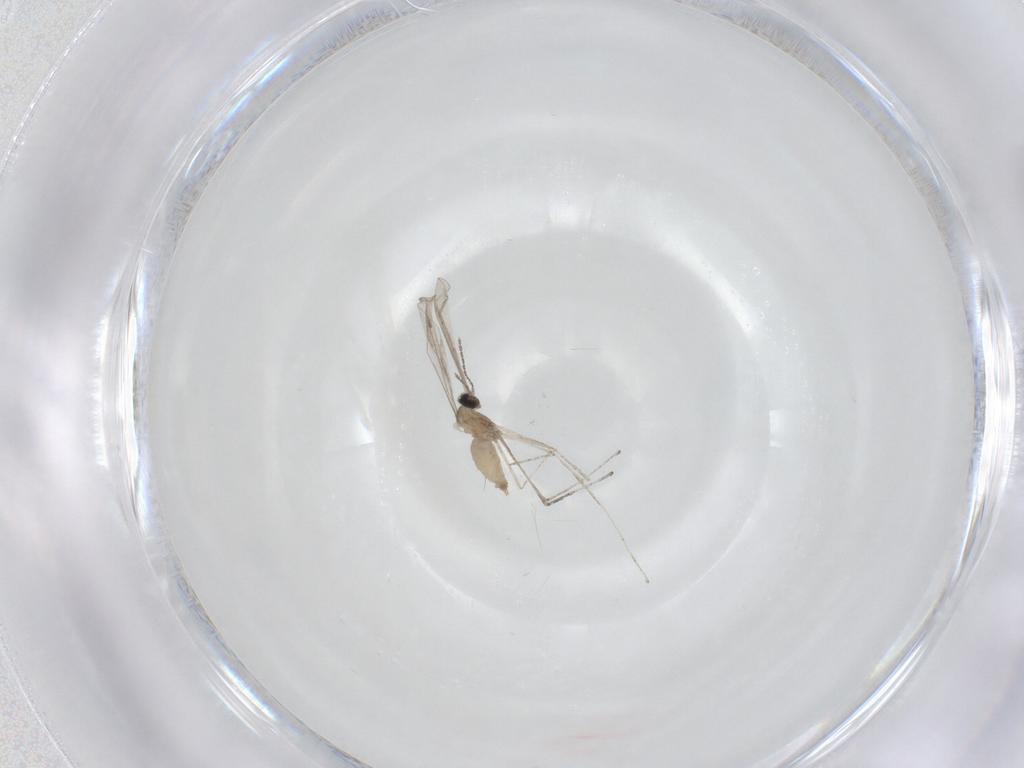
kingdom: Animalia
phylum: Arthropoda
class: Insecta
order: Diptera
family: Cecidomyiidae
